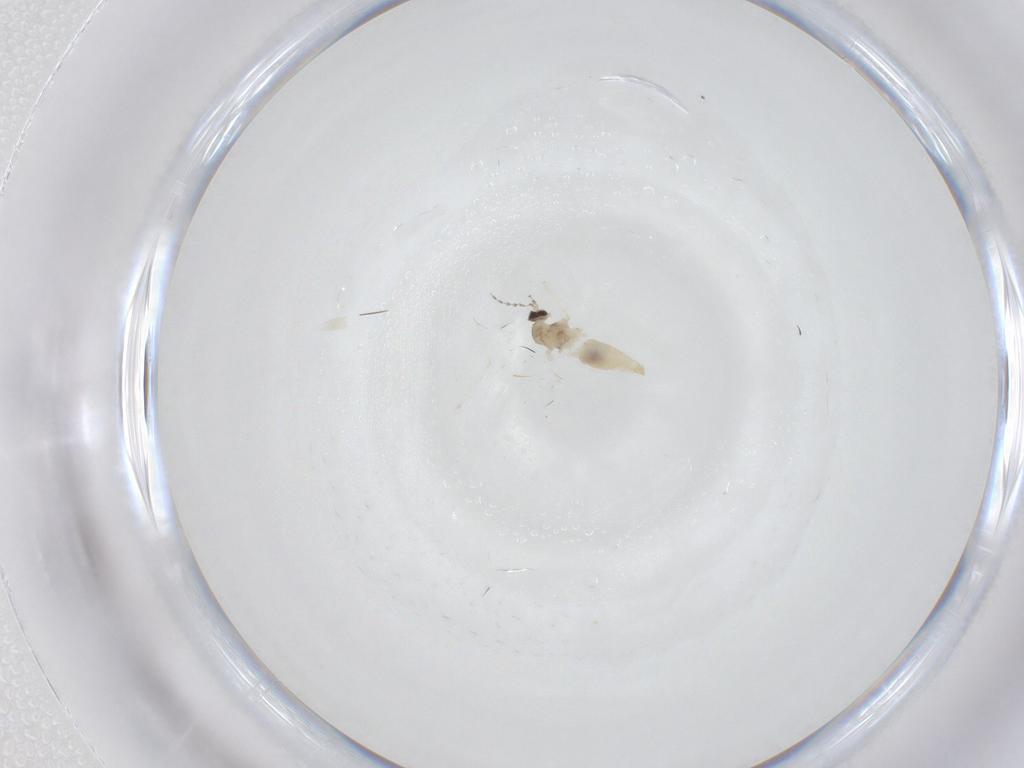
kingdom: Animalia
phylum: Arthropoda
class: Insecta
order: Diptera
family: Cecidomyiidae
